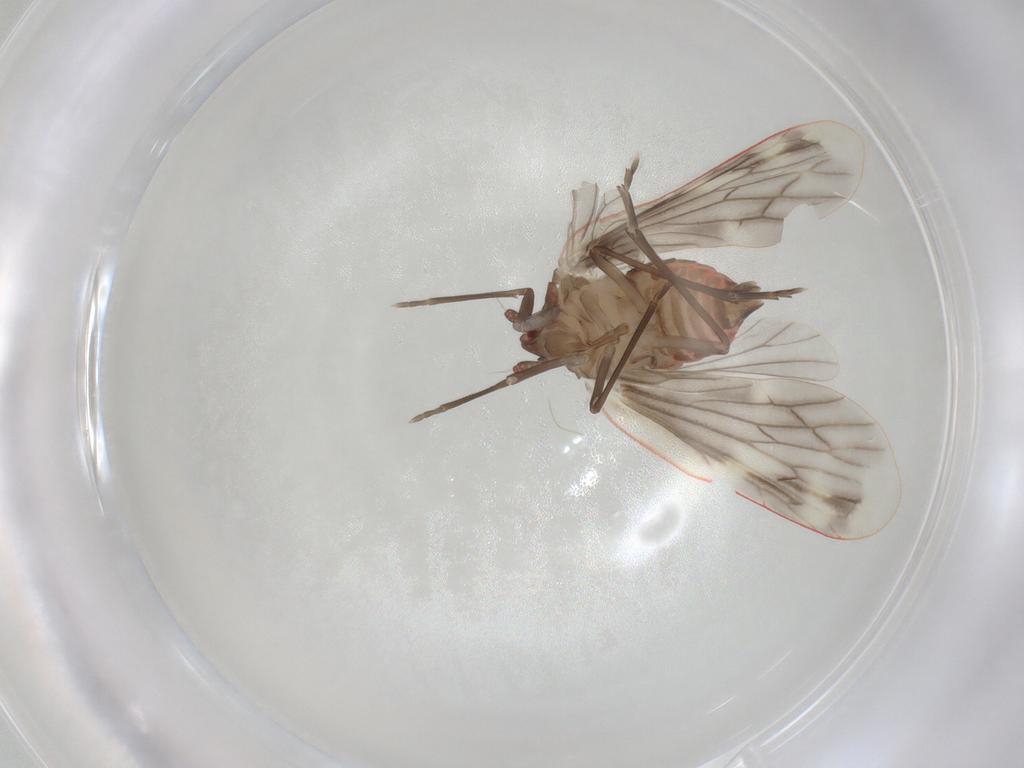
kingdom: Animalia
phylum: Arthropoda
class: Insecta
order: Hemiptera
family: Derbidae
